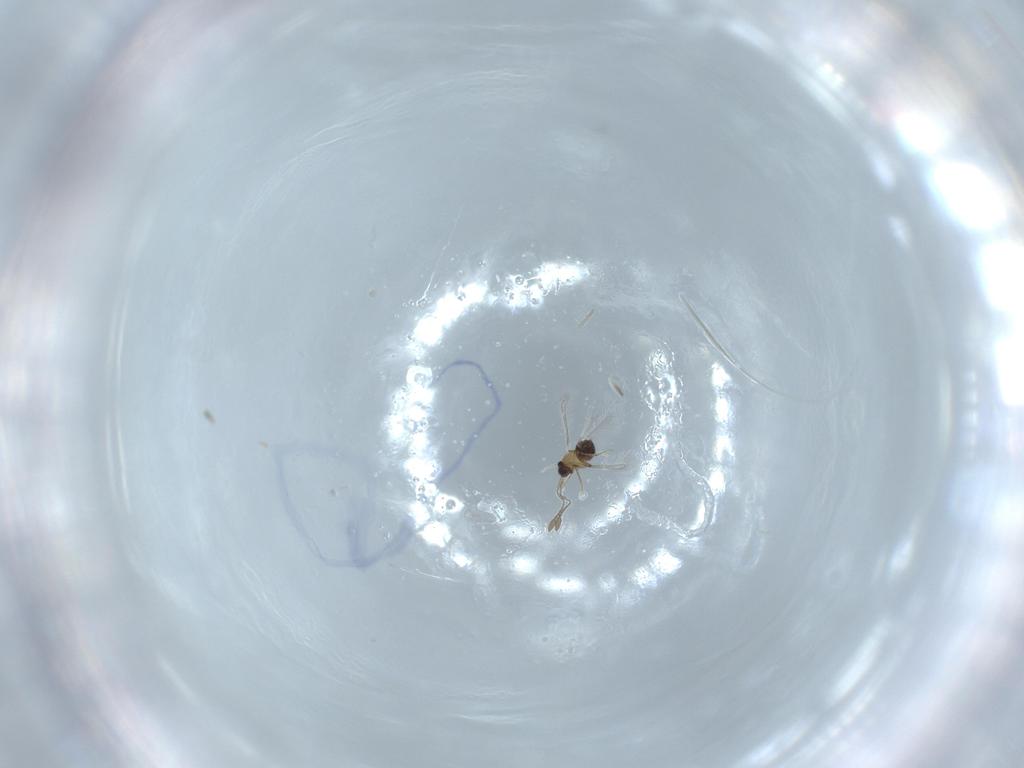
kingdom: Animalia
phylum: Arthropoda
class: Insecta
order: Hymenoptera
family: Mymaridae
